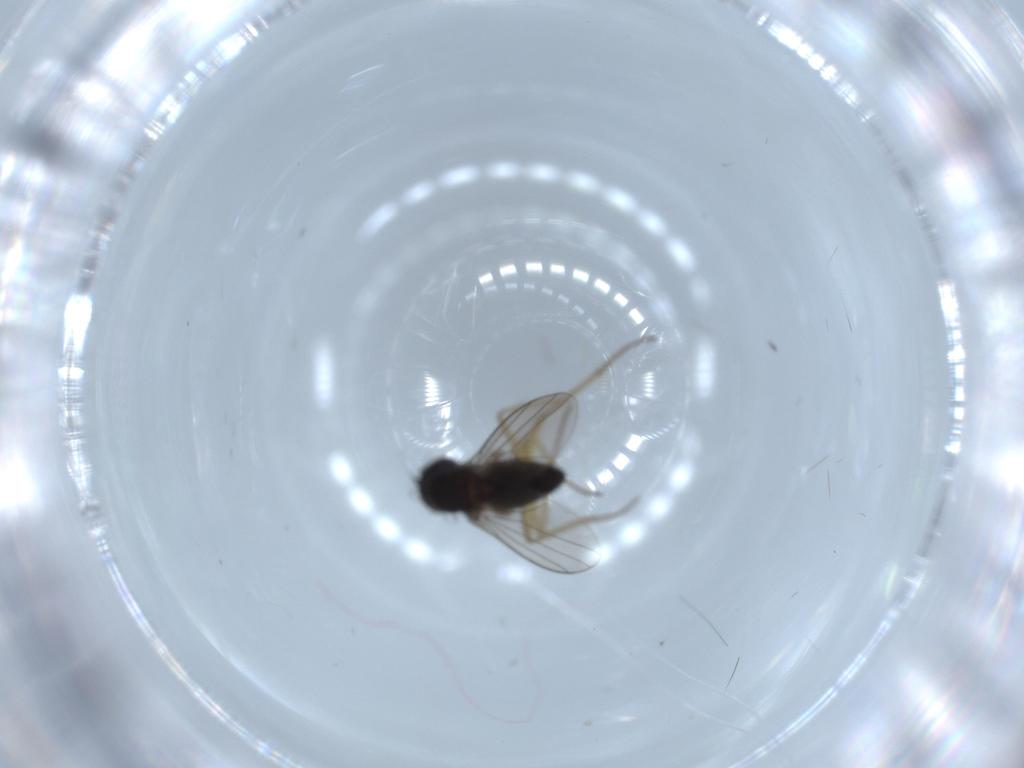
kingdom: Animalia
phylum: Arthropoda
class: Insecta
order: Diptera
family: Dolichopodidae
